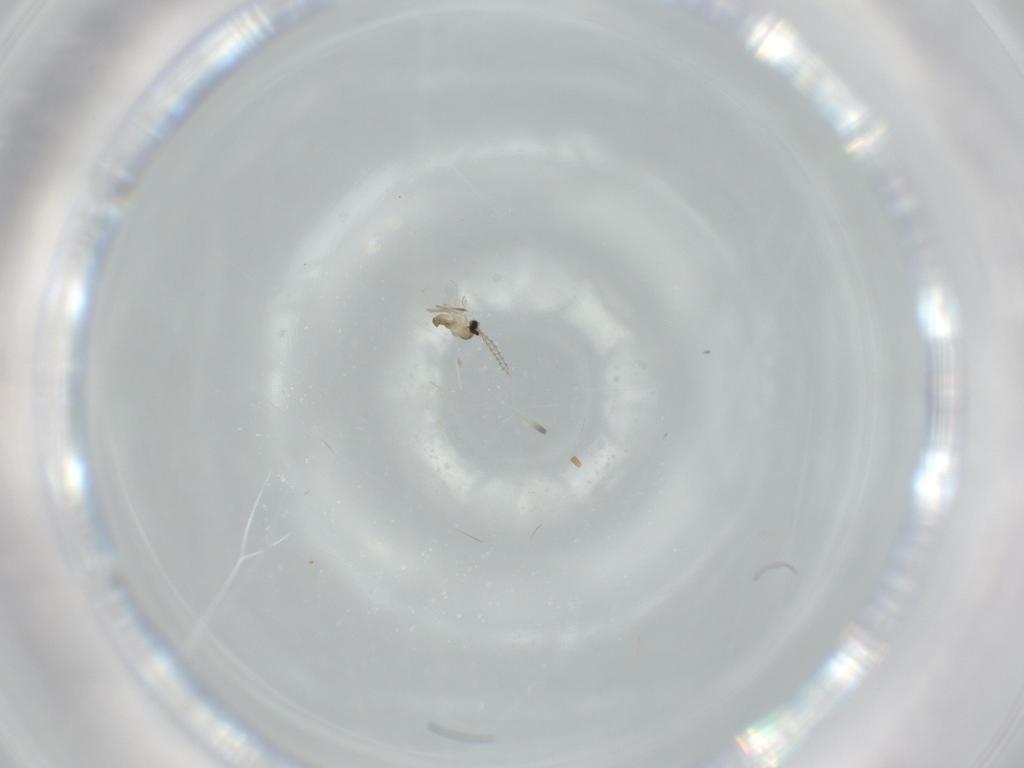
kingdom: Animalia
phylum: Arthropoda
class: Insecta
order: Diptera
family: Cecidomyiidae
